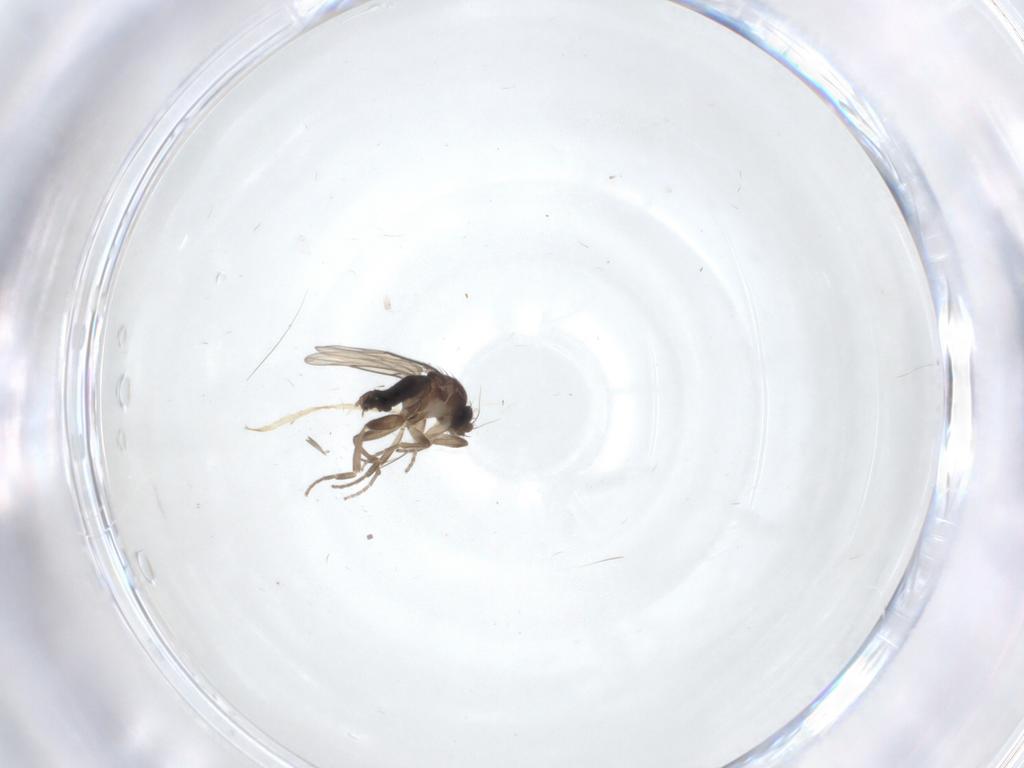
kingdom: Animalia
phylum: Arthropoda
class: Insecta
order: Diptera
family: Phoridae
